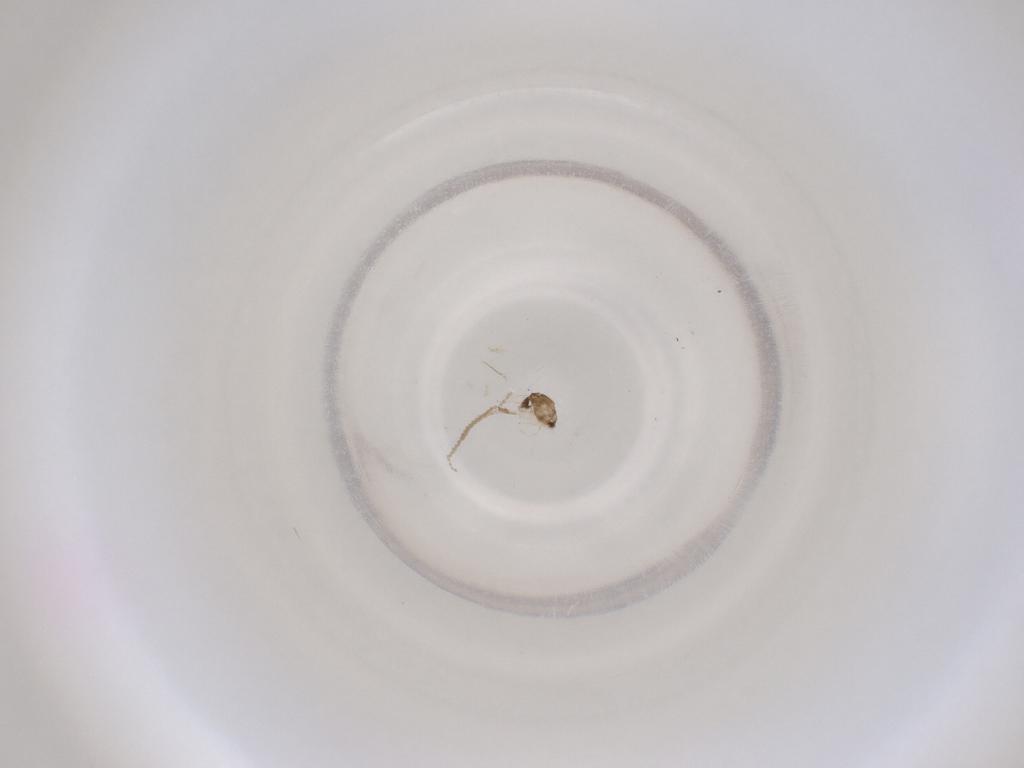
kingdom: Animalia
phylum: Arthropoda
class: Insecta
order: Diptera
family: Cecidomyiidae
